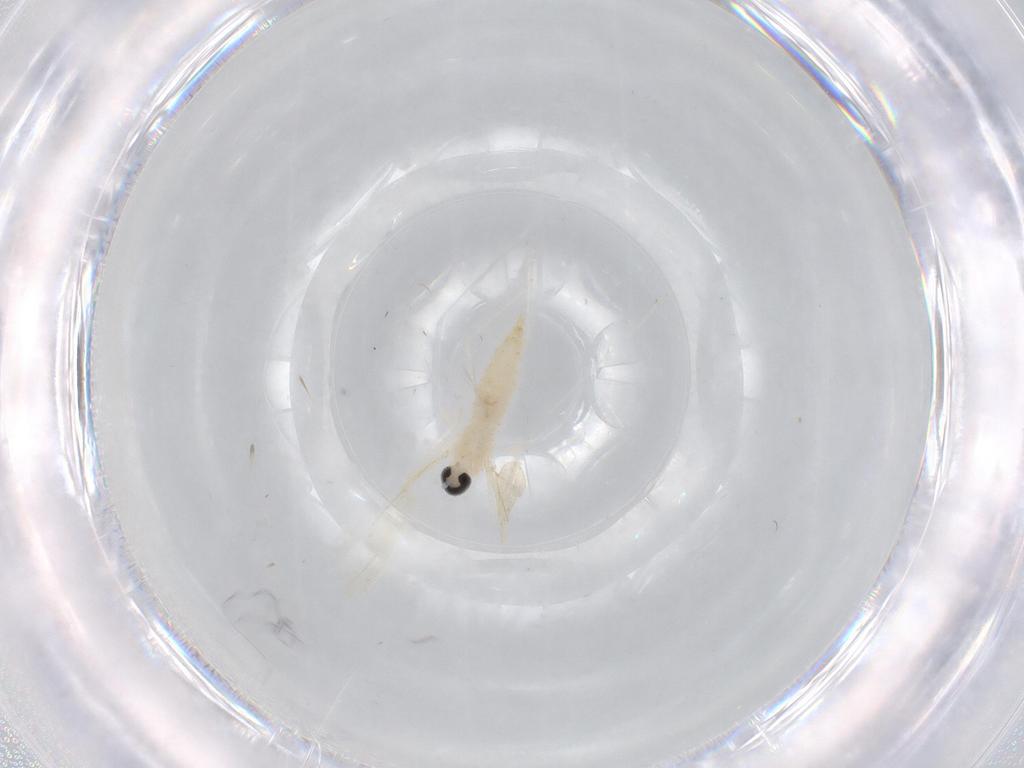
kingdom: Animalia
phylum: Arthropoda
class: Insecta
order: Diptera
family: Cecidomyiidae
